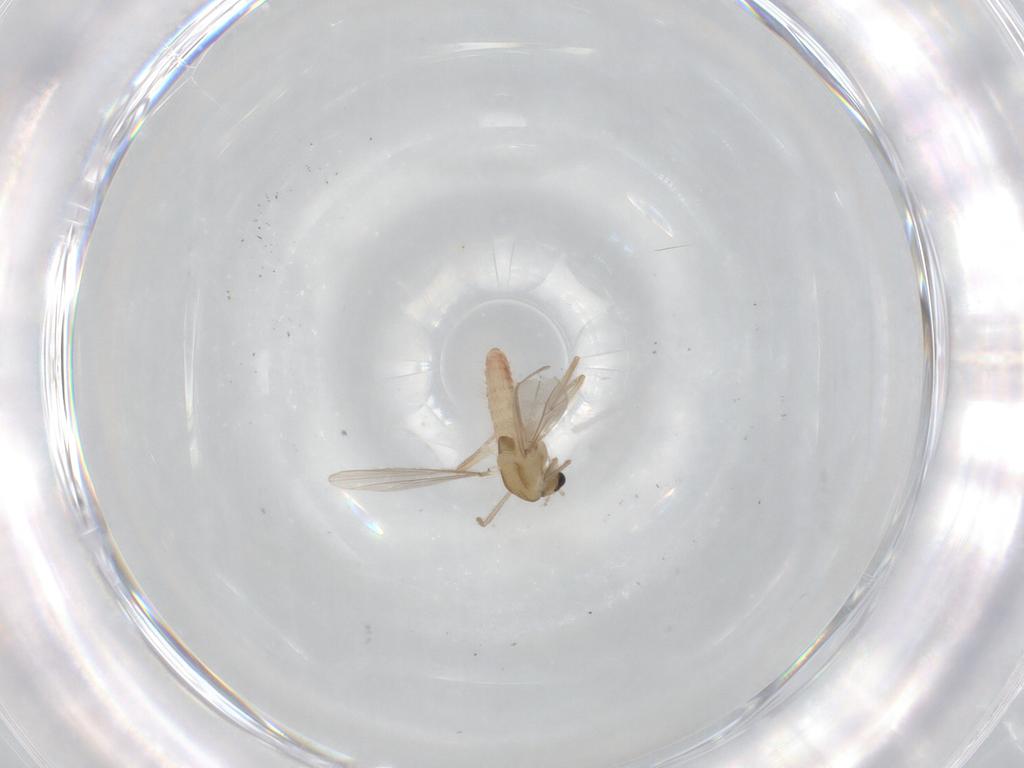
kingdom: Animalia
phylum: Arthropoda
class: Insecta
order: Diptera
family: Chironomidae
